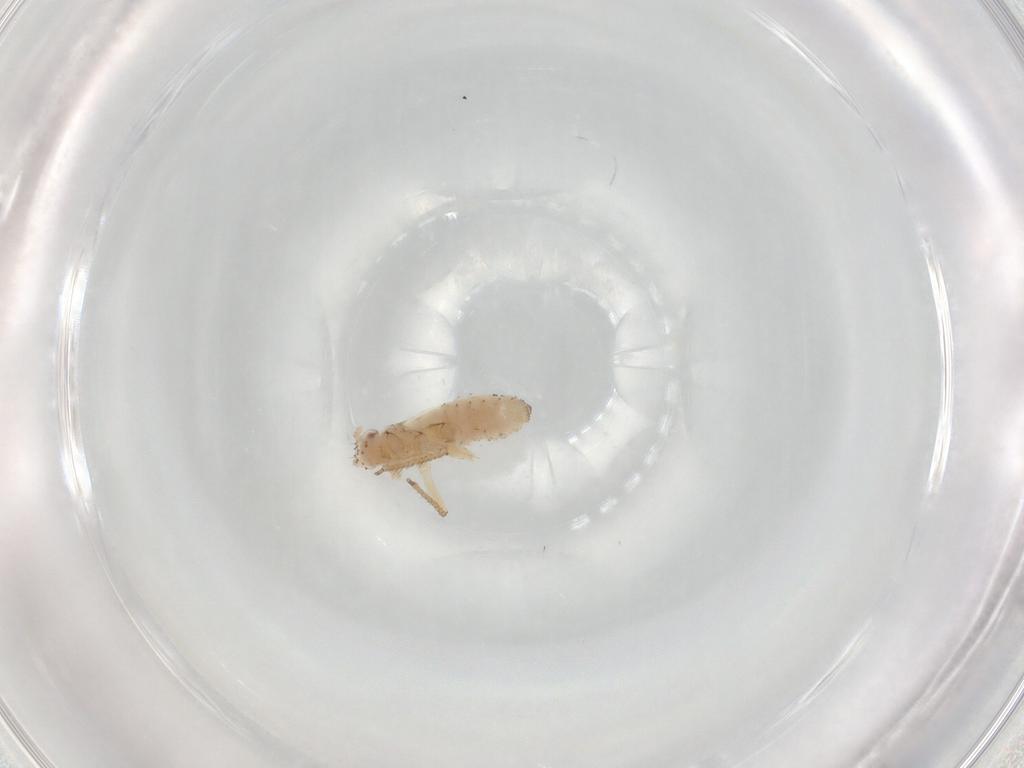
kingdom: Animalia
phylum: Arthropoda
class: Insecta
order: Hemiptera
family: Aphididae
